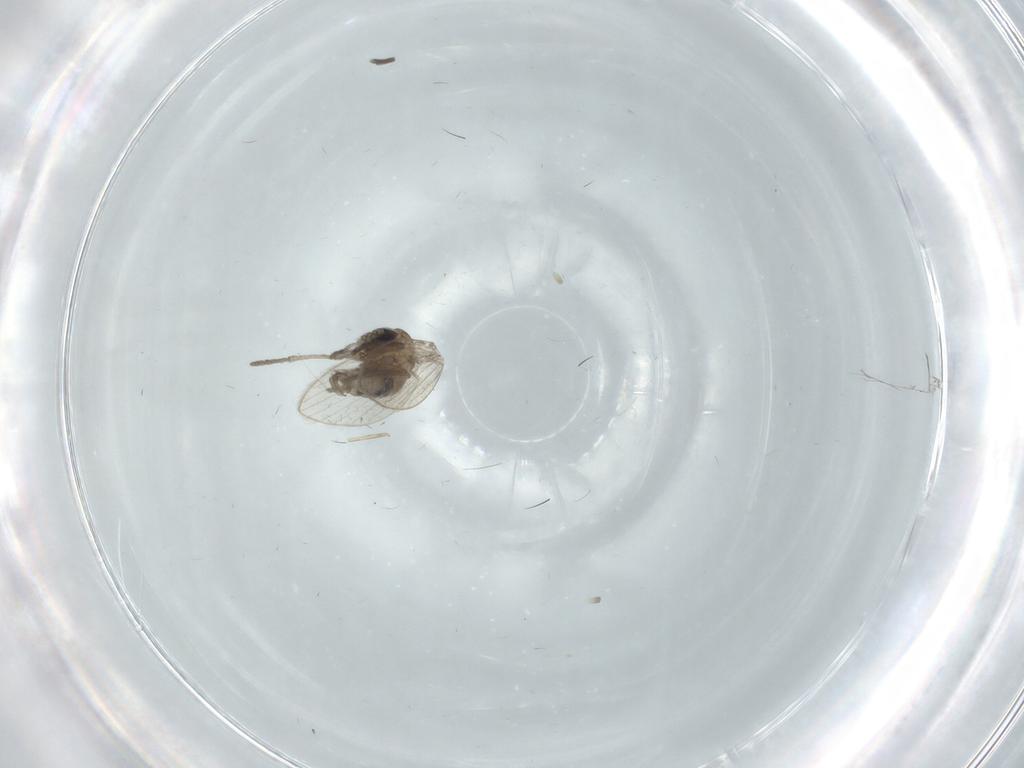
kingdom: Animalia
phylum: Arthropoda
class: Insecta
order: Diptera
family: Psychodidae
